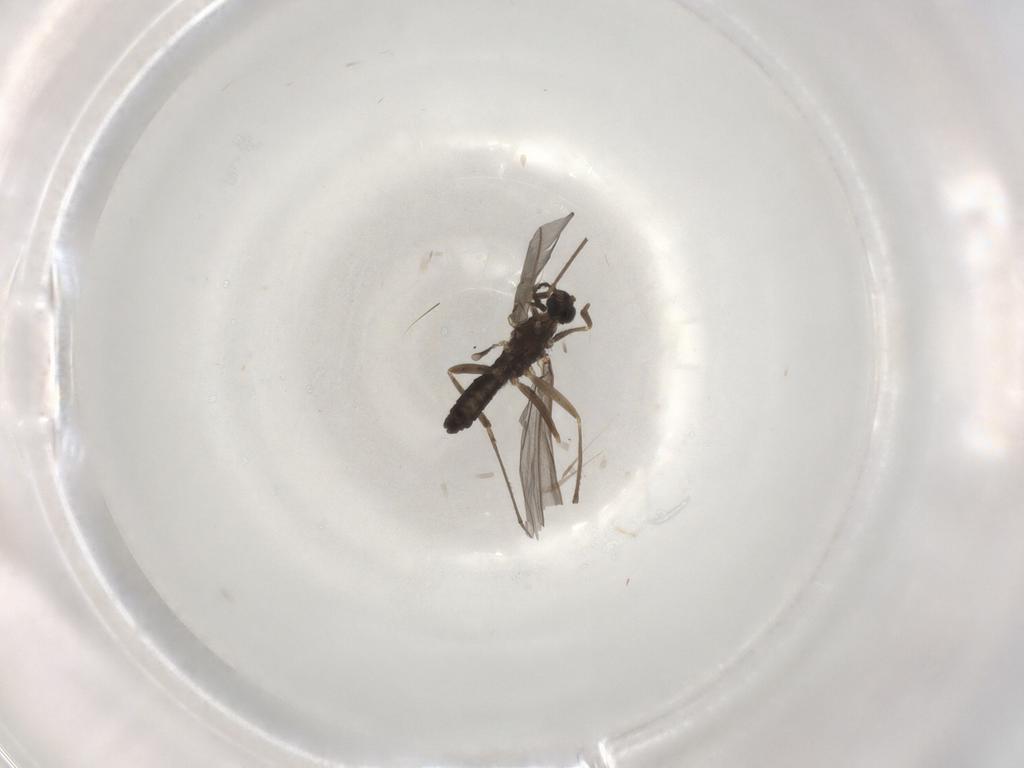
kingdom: Animalia
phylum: Arthropoda
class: Insecta
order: Diptera
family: Cecidomyiidae
